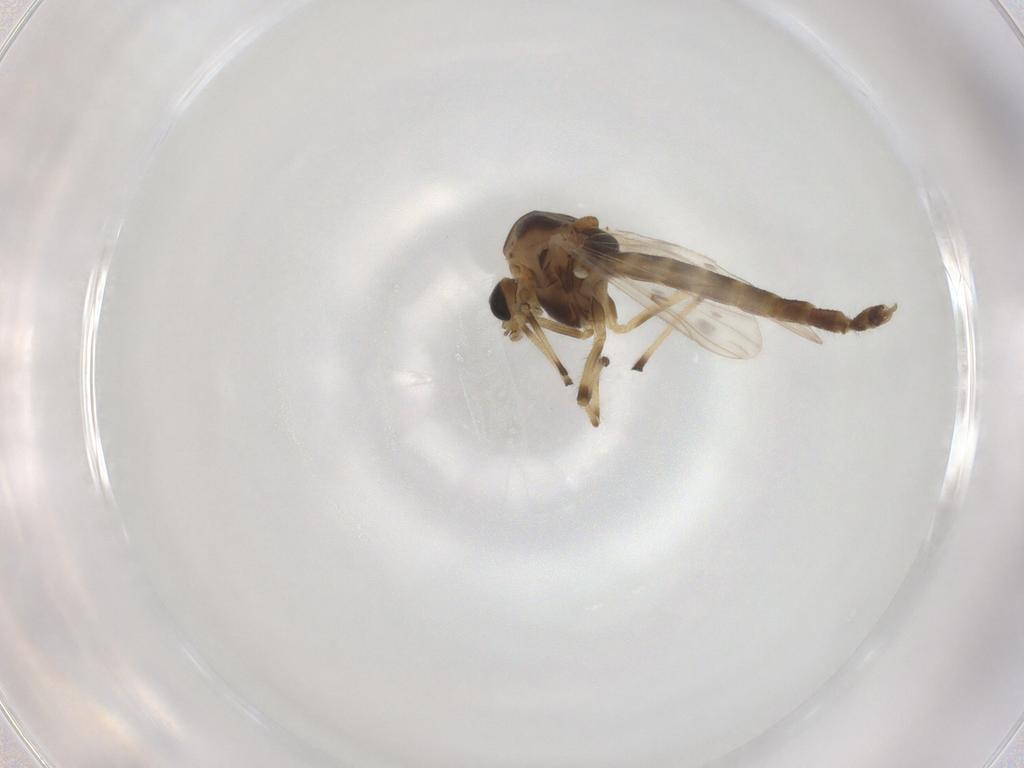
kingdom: Animalia
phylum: Arthropoda
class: Insecta
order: Diptera
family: Chironomidae
